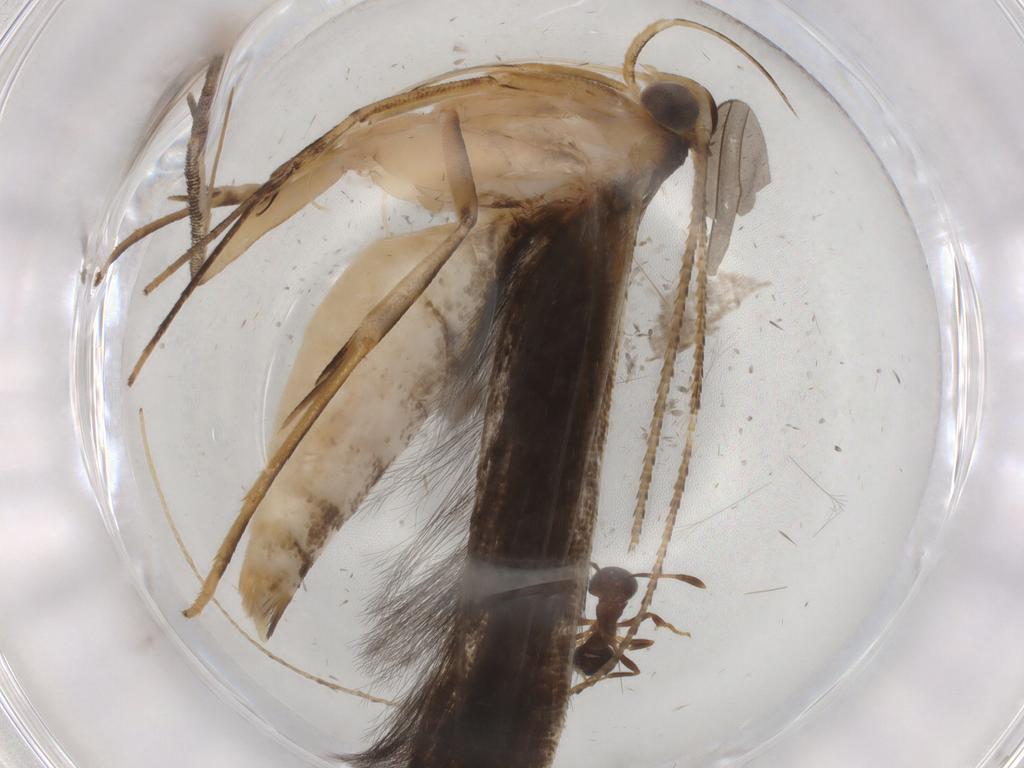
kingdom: Animalia
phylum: Arthropoda
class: Insecta
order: Lepidoptera
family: Gracillariidae
